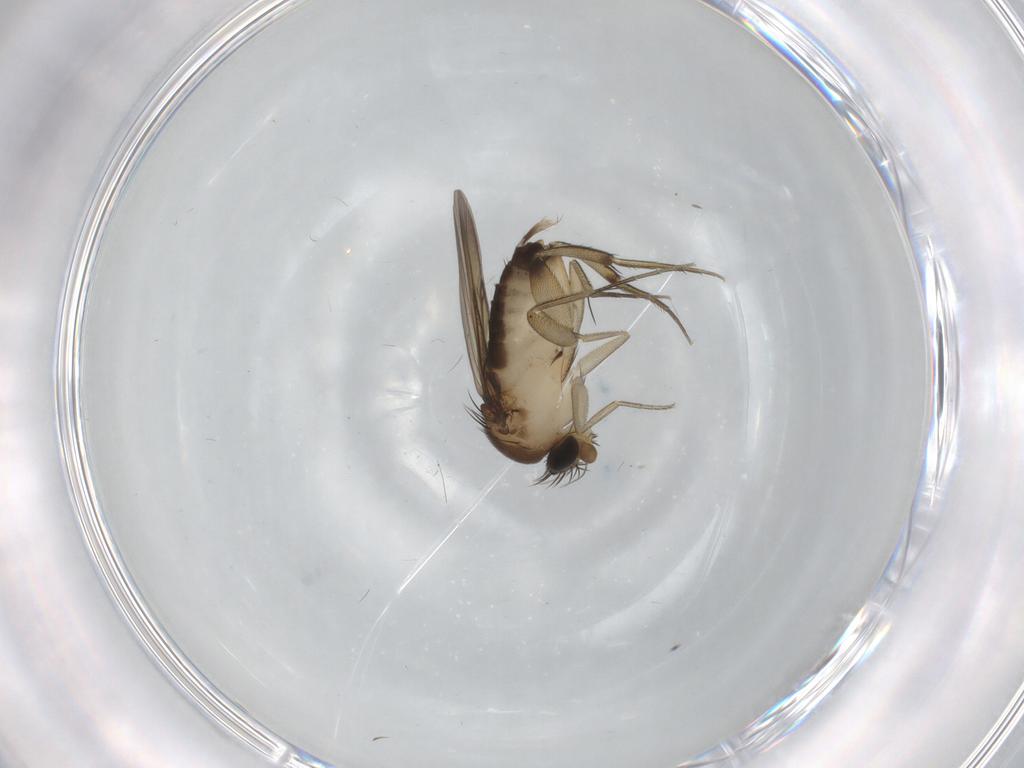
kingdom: Animalia
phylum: Arthropoda
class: Insecta
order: Diptera
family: Phoridae
